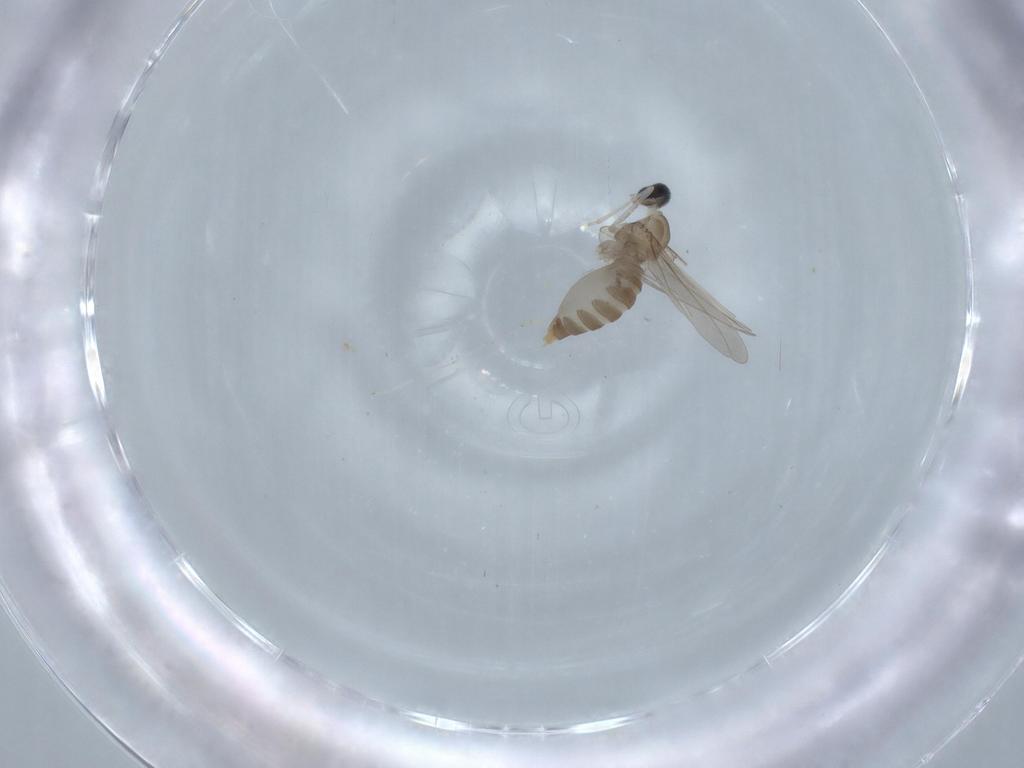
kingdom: Animalia
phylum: Arthropoda
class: Insecta
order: Diptera
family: Cecidomyiidae
